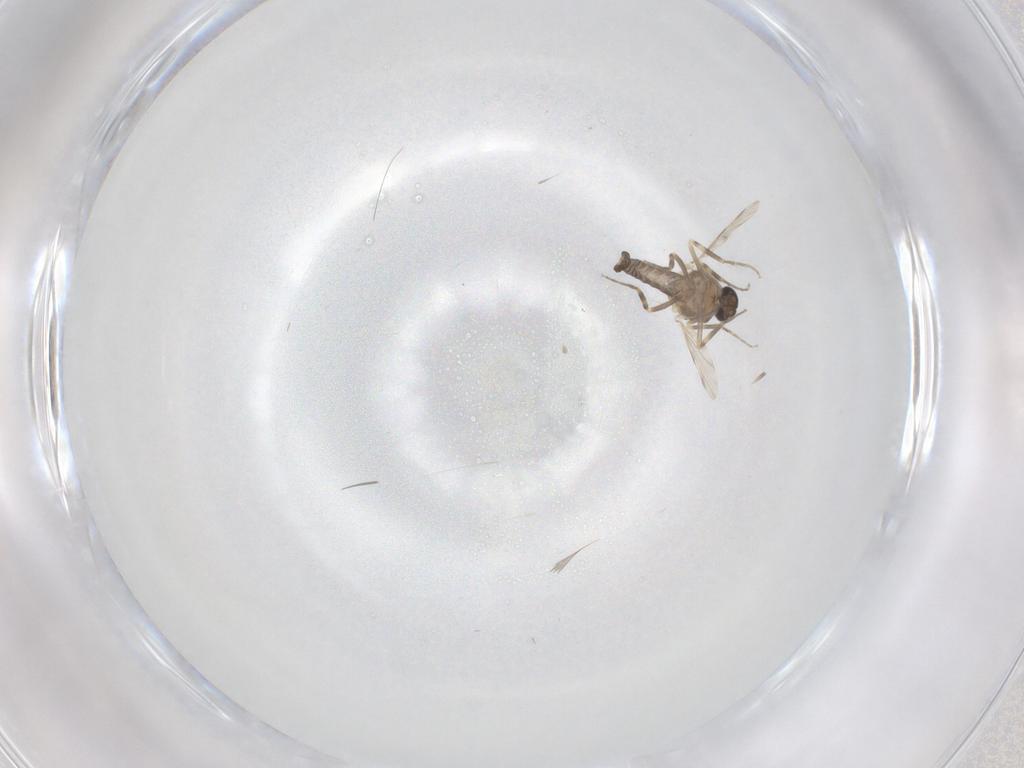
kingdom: Animalia
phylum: Arthropoda
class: Insecta
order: Diptera
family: Ceratopogonidae
